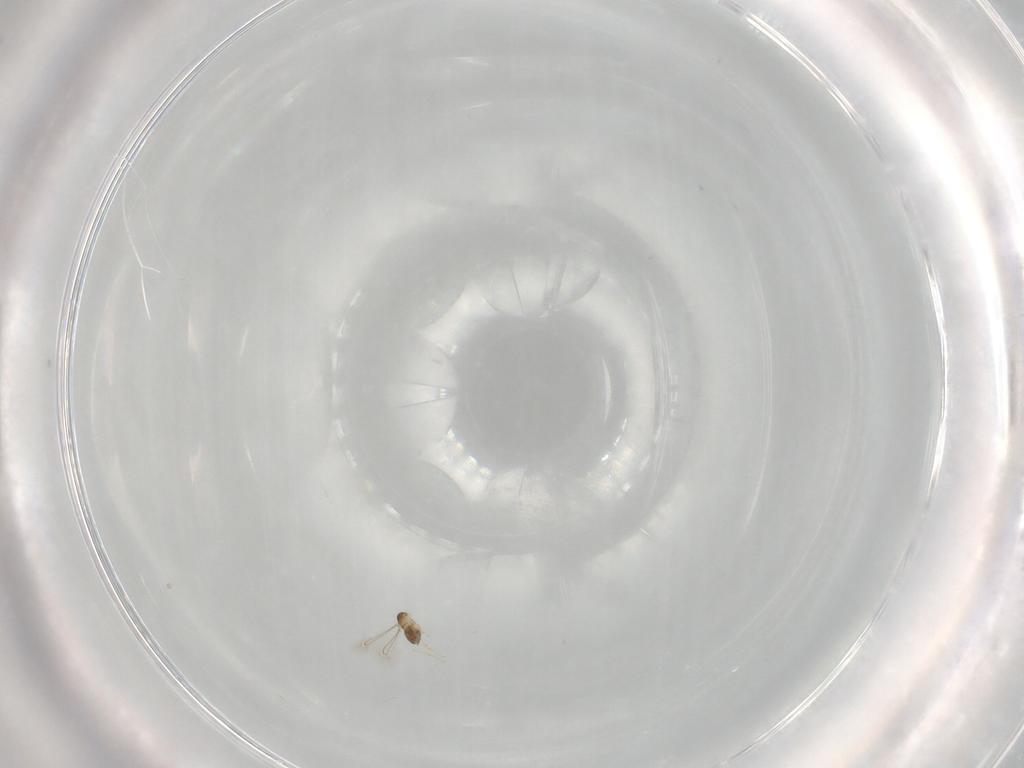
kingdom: Animalia
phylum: Arthropoda
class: Insecta
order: Hymenoptera
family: Ichneumonidae
